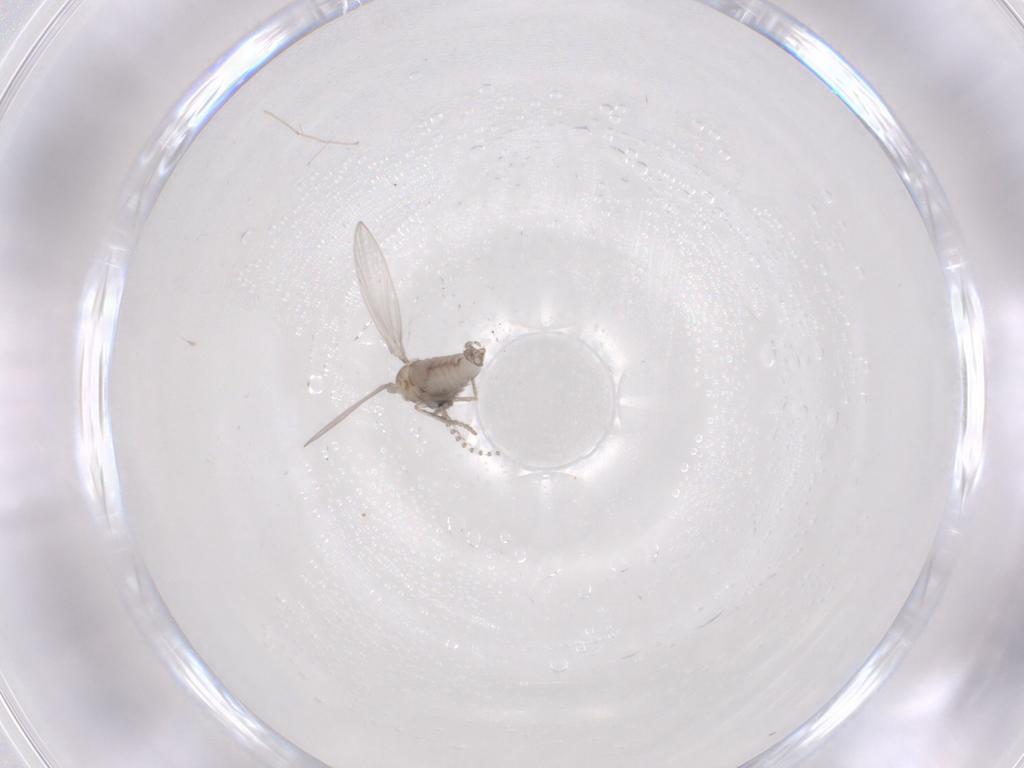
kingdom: Animalia
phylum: Arthropoda
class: Insecta
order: Diptera
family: Psychodidae
